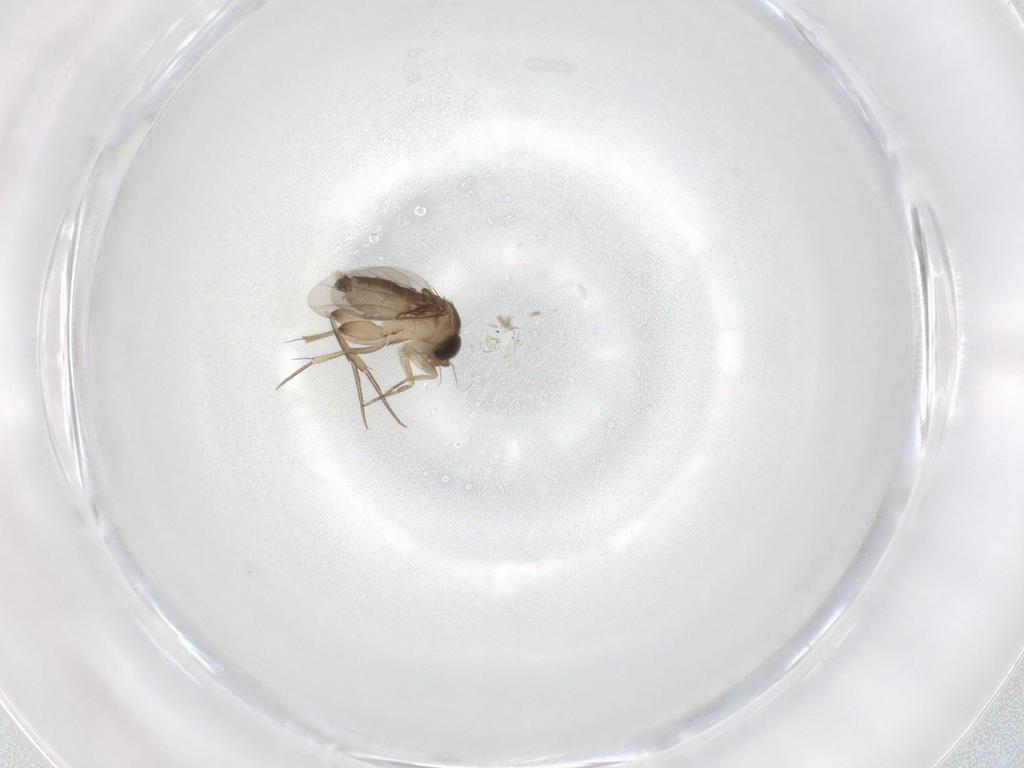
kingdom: Animalia
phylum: Arthropoda
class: Insecta
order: Diptera
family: Phoridae
